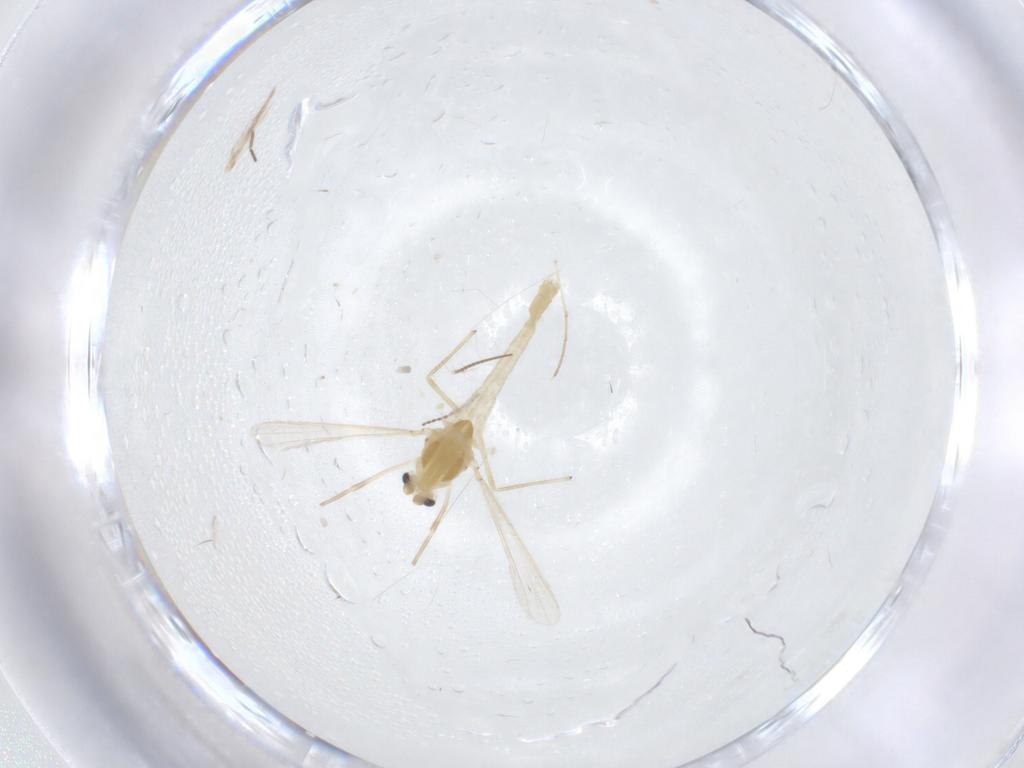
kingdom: Animalia
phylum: Arthropoda
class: Insecta
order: Diptera
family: Chironomidae
